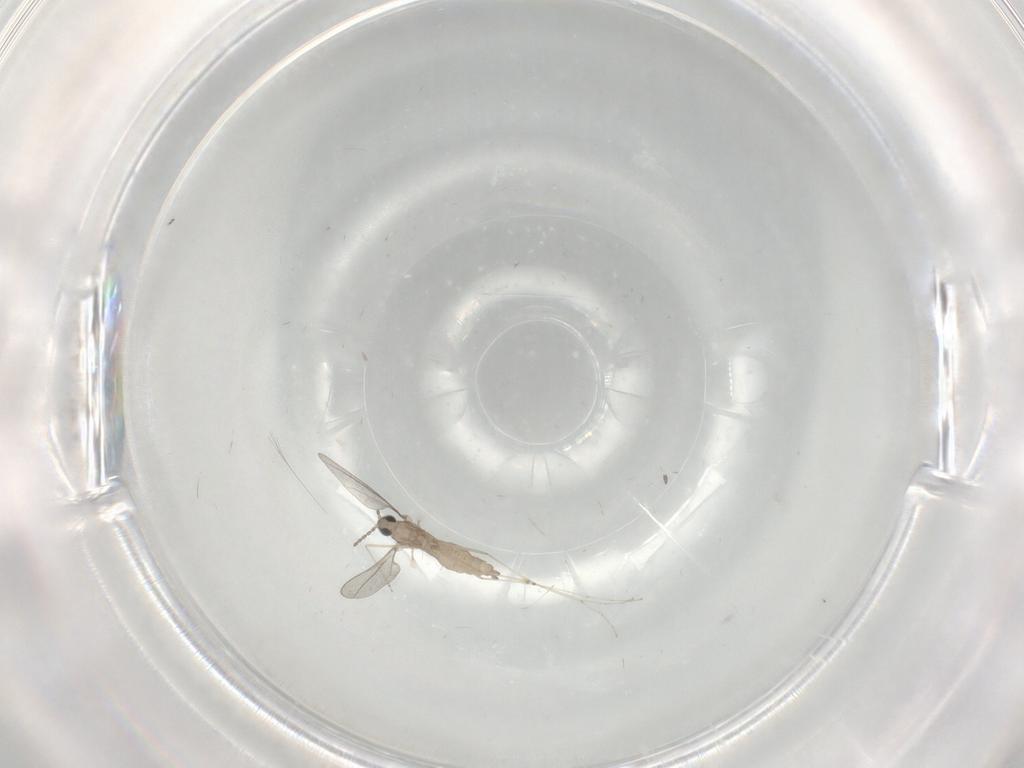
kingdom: Animalia
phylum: Arthropoda
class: Insecta
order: Diptera
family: Cecidomyiidae
